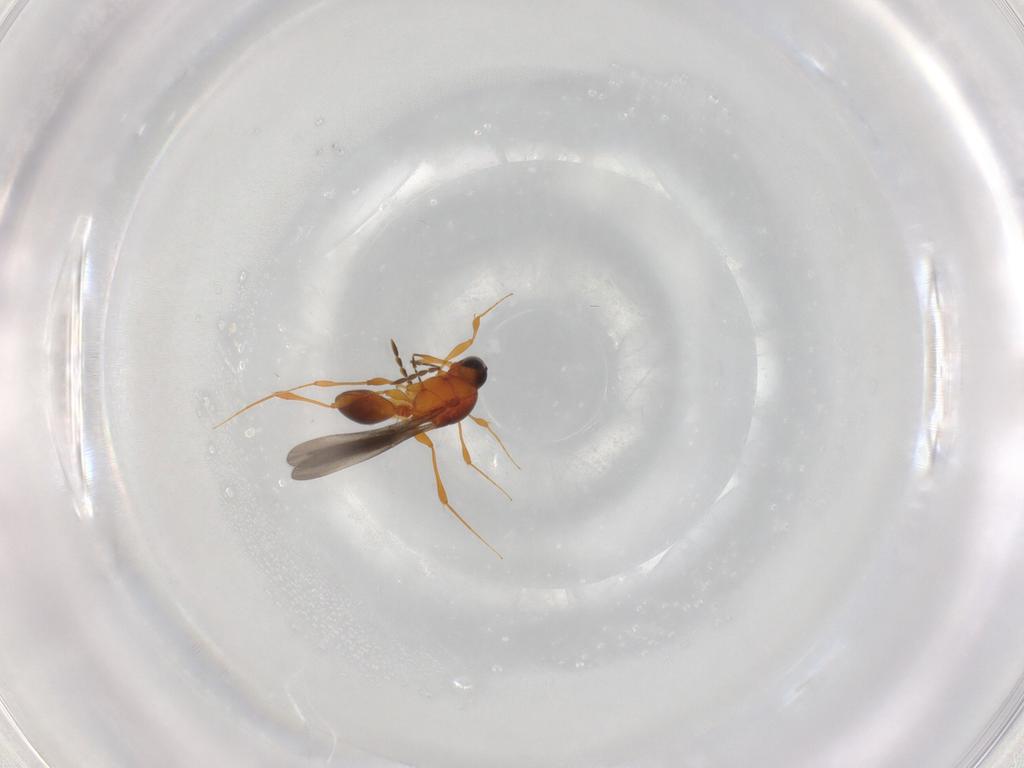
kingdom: Animalia
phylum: Arthropoda
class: Insecta
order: Hymenoptera
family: Platygastridae
